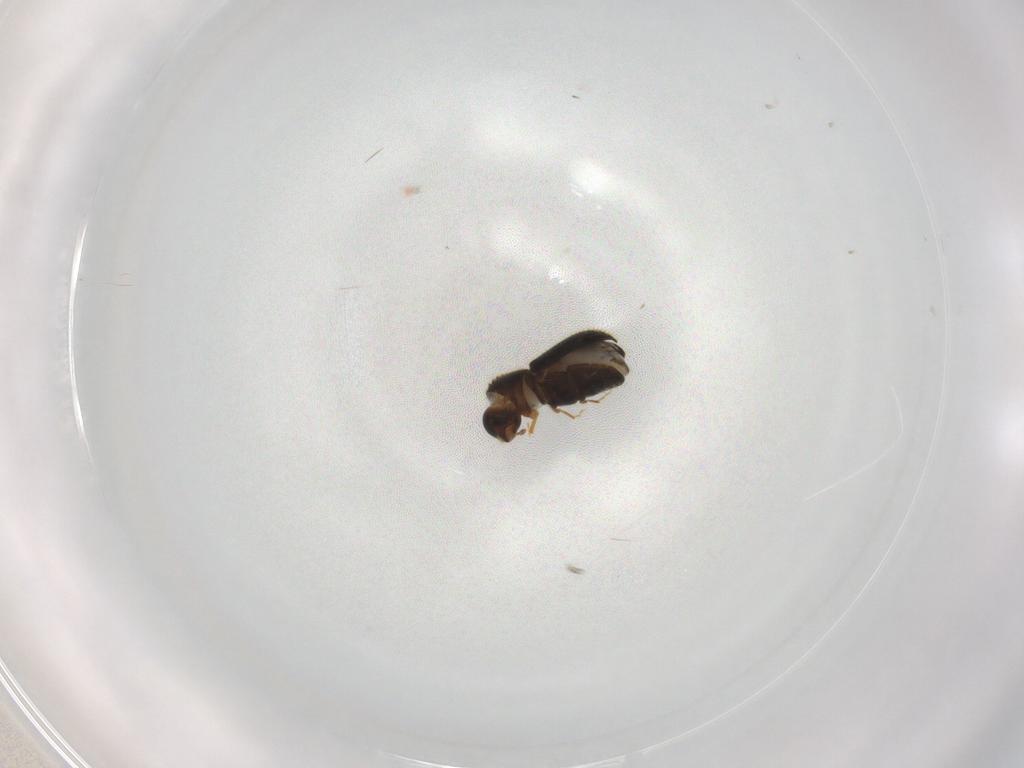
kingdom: Animalia
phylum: Arthropoda
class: Insecta
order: Coleoptera
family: Curculionidae
